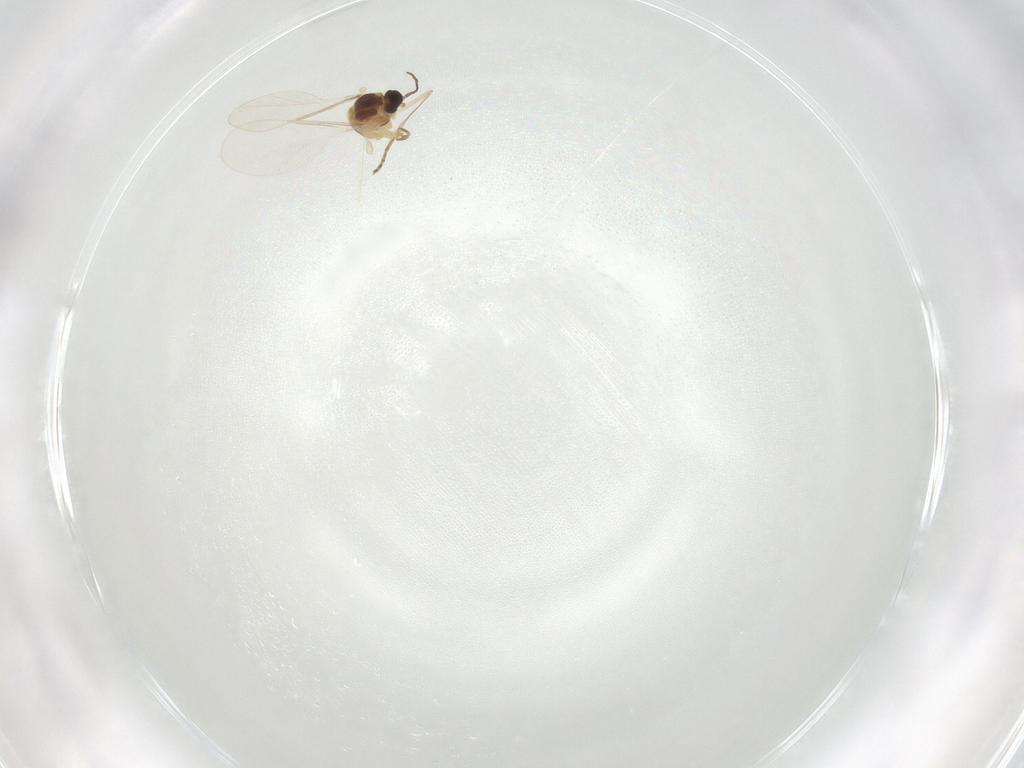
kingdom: Animalia
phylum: Arthropoda
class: Insecta
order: Diptera
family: Cecidomyiidae
